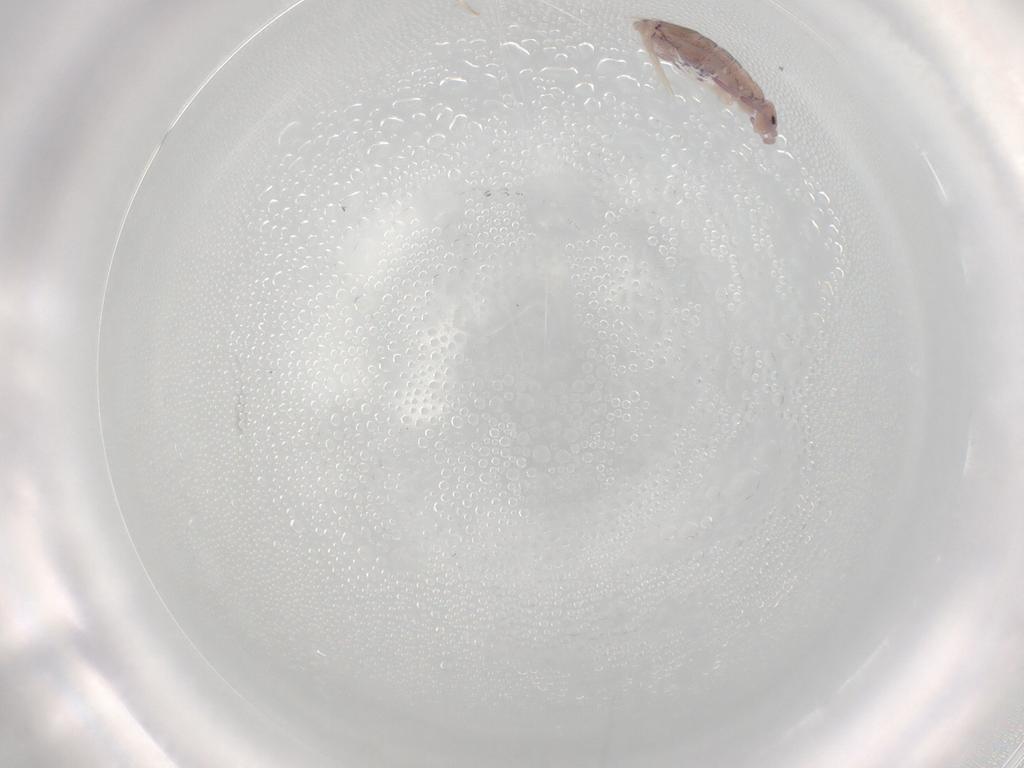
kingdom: Animalia
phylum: Arthropoda
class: Collembola
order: Entomobryomorpha
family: Entomobryidae
